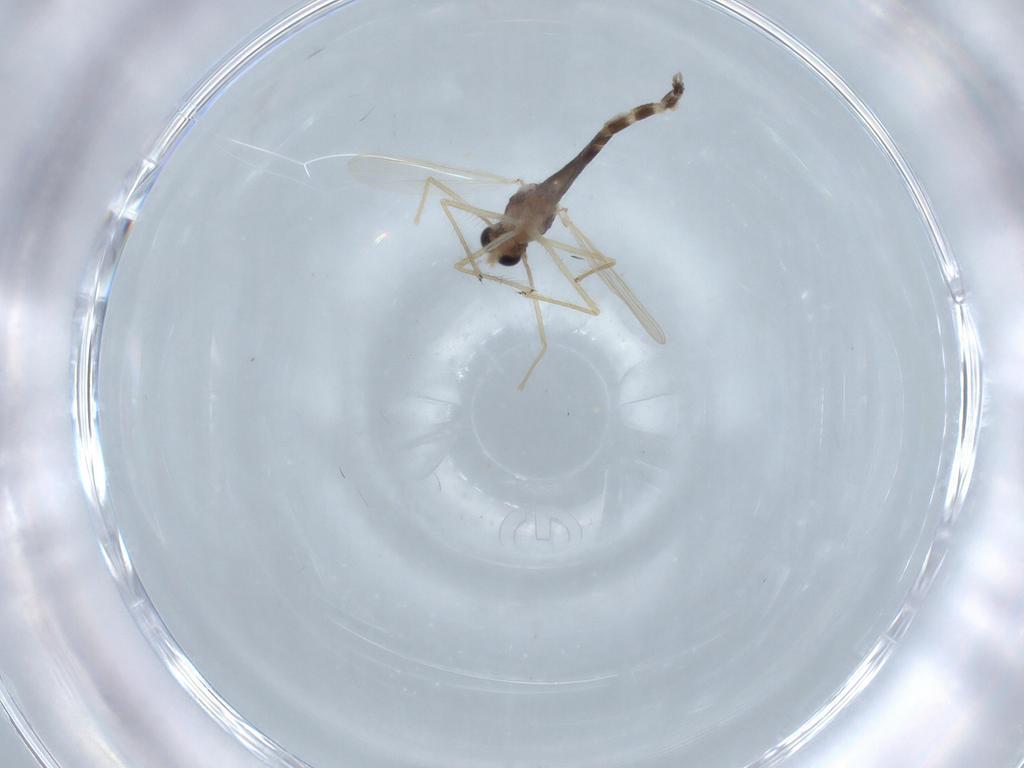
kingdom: Animalia
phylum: Arthropoda
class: Insecta
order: Diptera
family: Chironomidae
